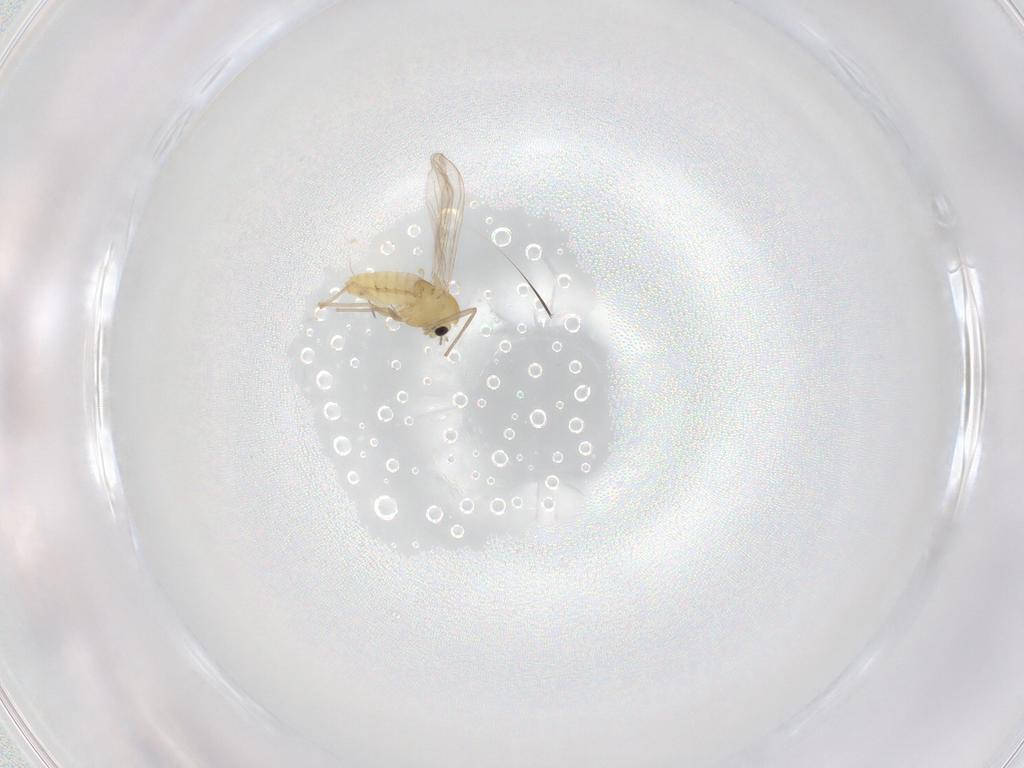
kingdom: Animalia
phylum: Arthropoda
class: Insecta
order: Diptera
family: Chironomidae
